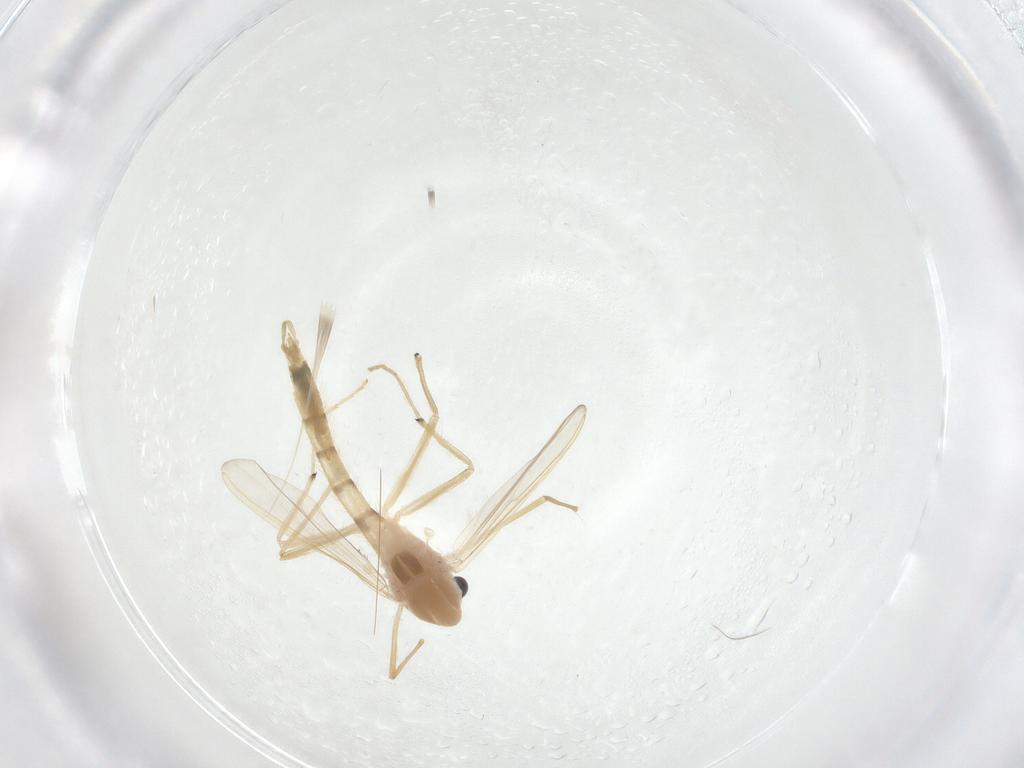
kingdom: Animalia
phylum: Arthropoda
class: Insecta
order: Diptera
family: Chironomidae
